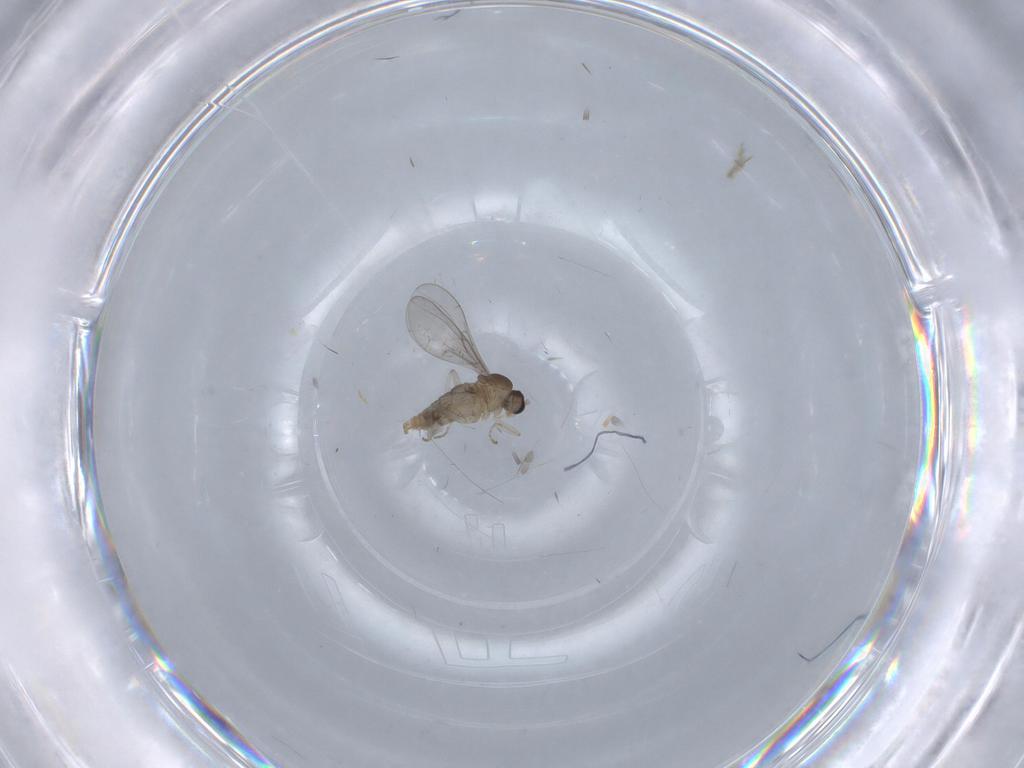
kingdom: Animalia
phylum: Arthropoda
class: Insecta
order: Diptera
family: Cecidomyiidae
